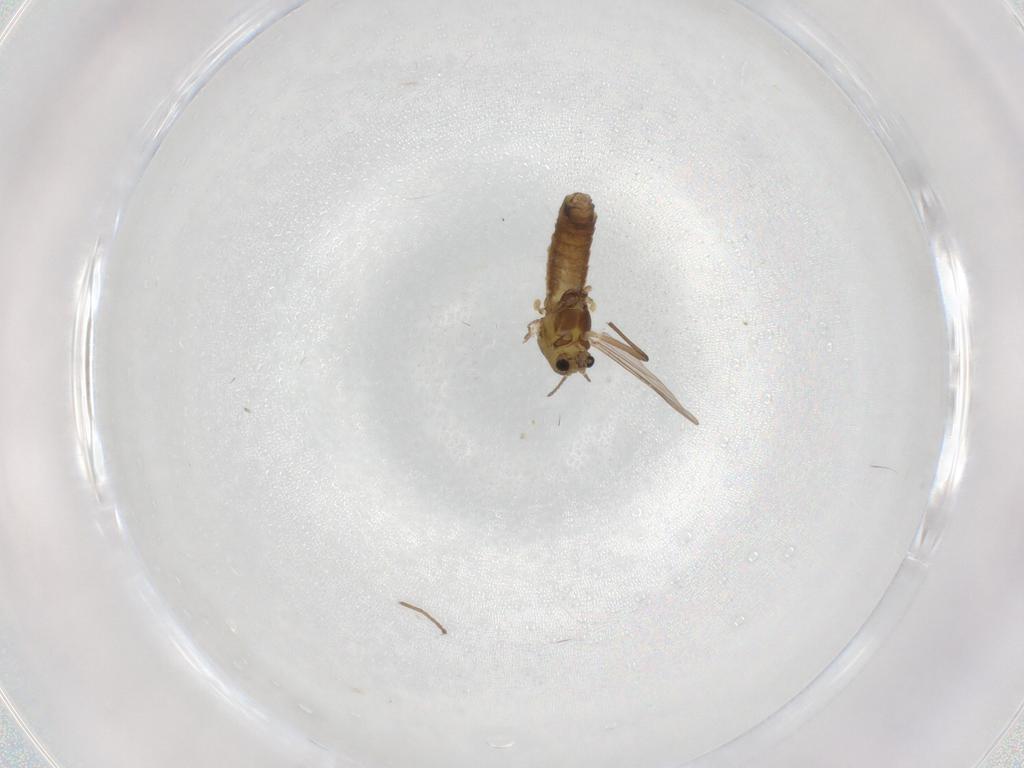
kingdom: Animalia
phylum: Arthropoda
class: Insecta
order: Diptera
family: Chironomidae
